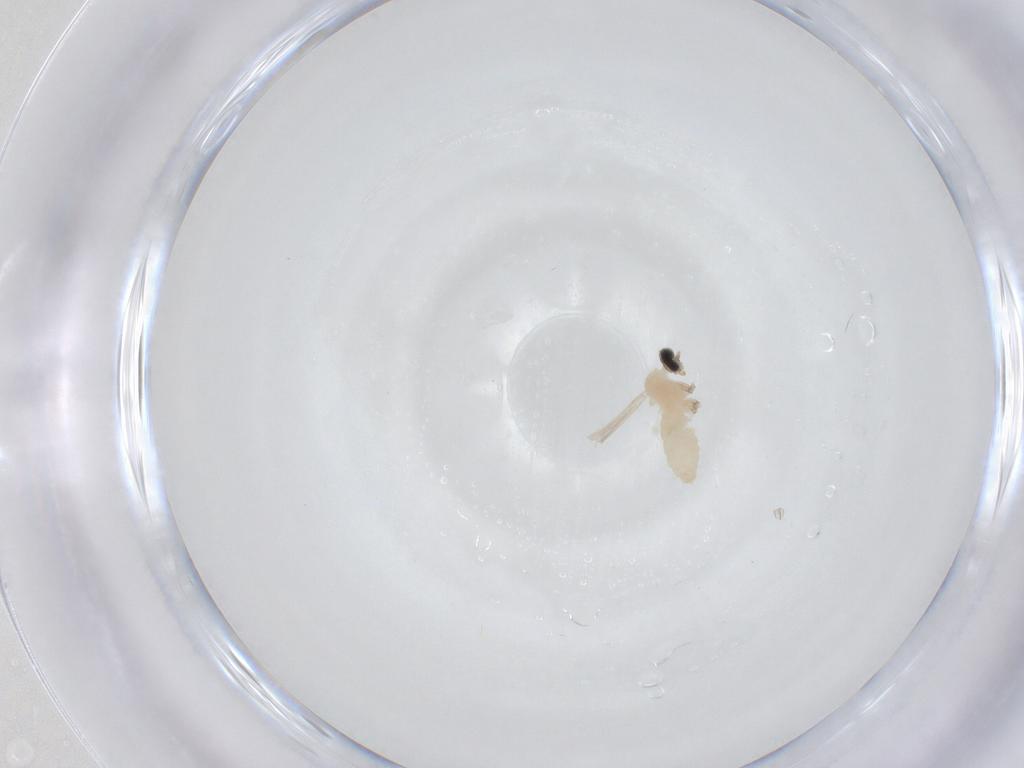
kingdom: Animalia
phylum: Arthropoda
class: Insecta
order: Diptera
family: Cecidomyiidae
